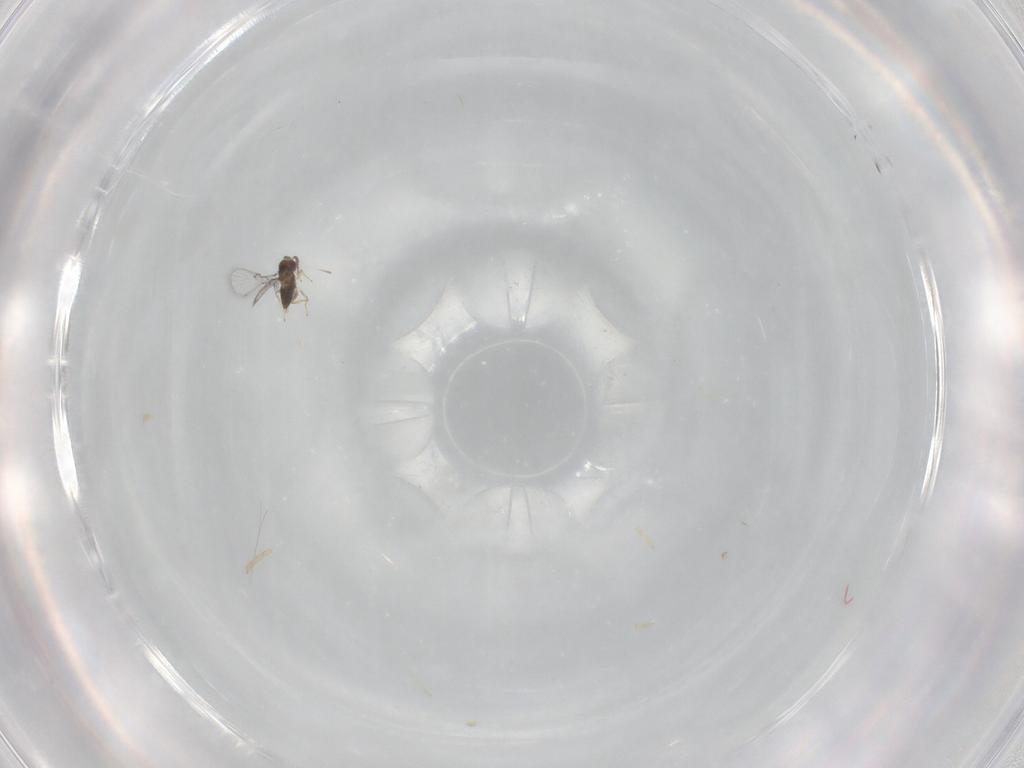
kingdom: Animalia
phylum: Arthropoda
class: Insecta
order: Hymenoptera
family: Trichogrammatidae
